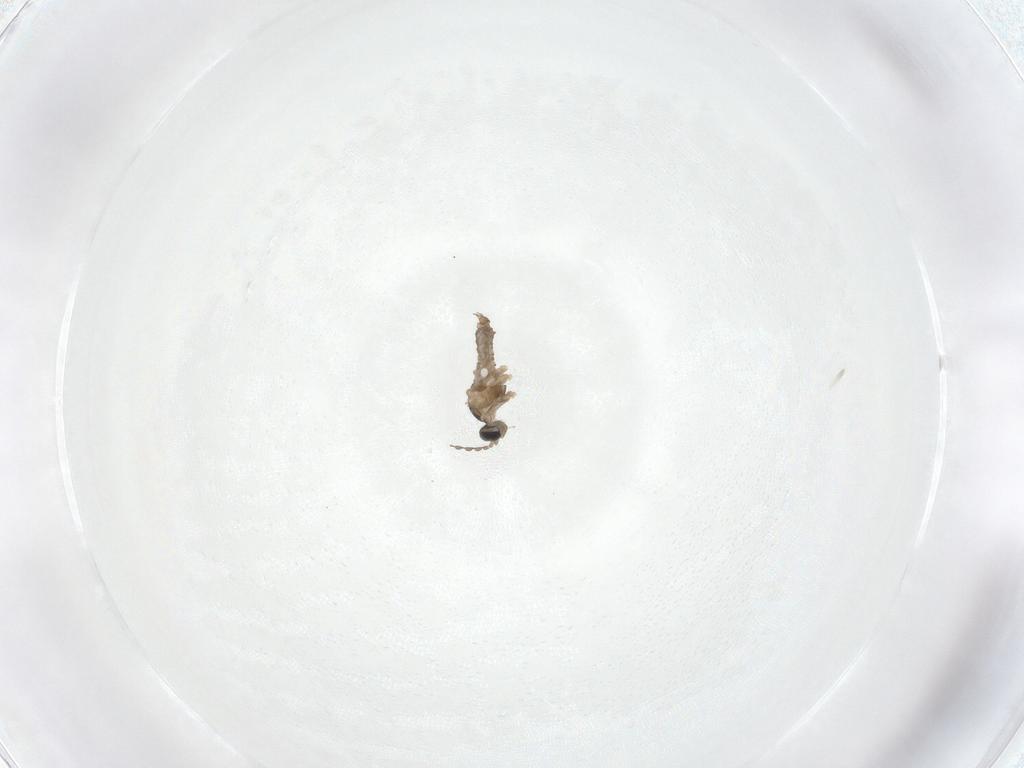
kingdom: Animalia
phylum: Arthropoda
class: Insecta
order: Diptera
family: Cecidomyiidae
